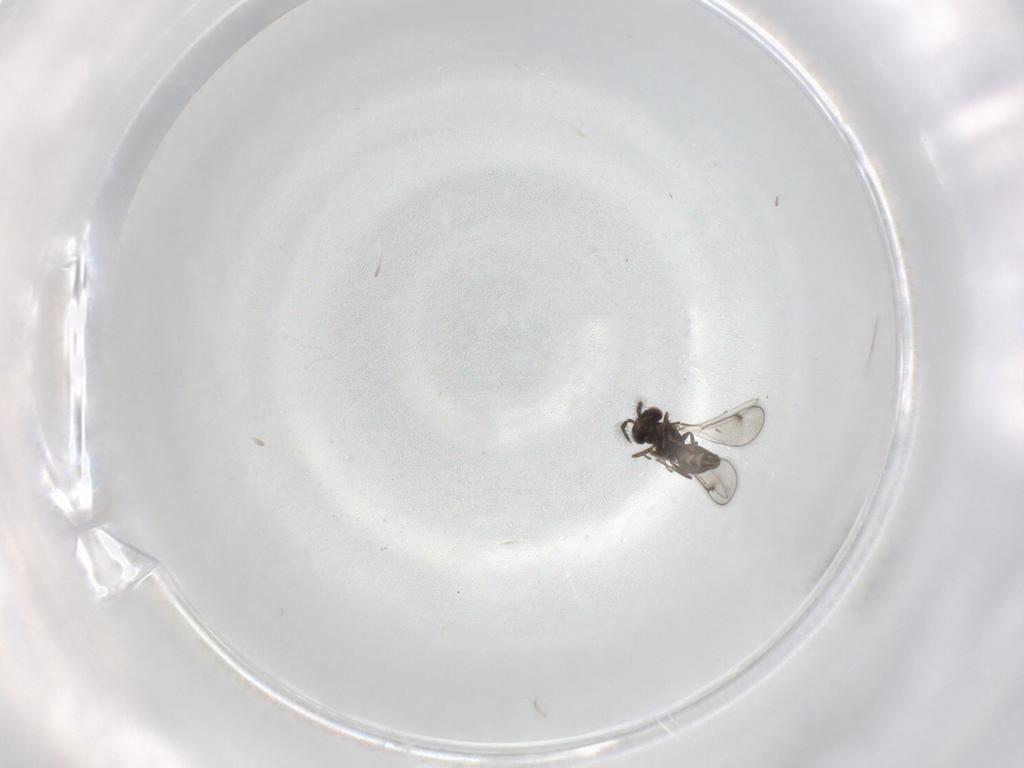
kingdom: Animalia
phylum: Arthropoda
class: Insecta
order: Hymenoptera
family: Eulophidae
